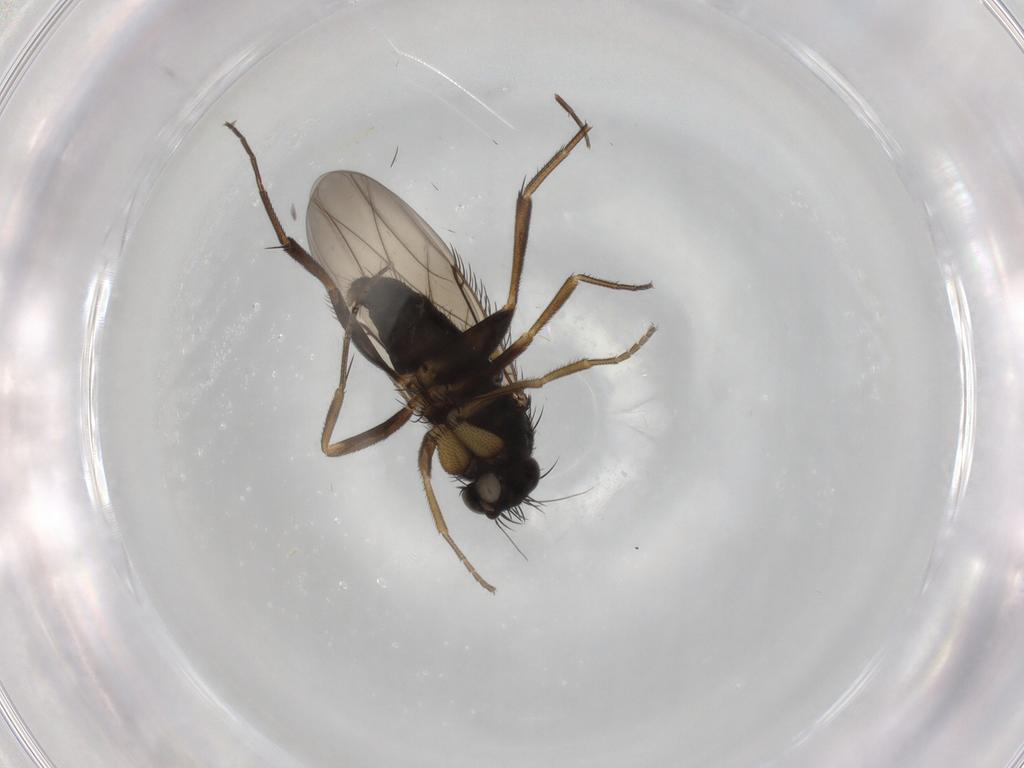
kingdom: Animalia
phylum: Arthropoda
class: Insecta
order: Diptera
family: Phoridae
